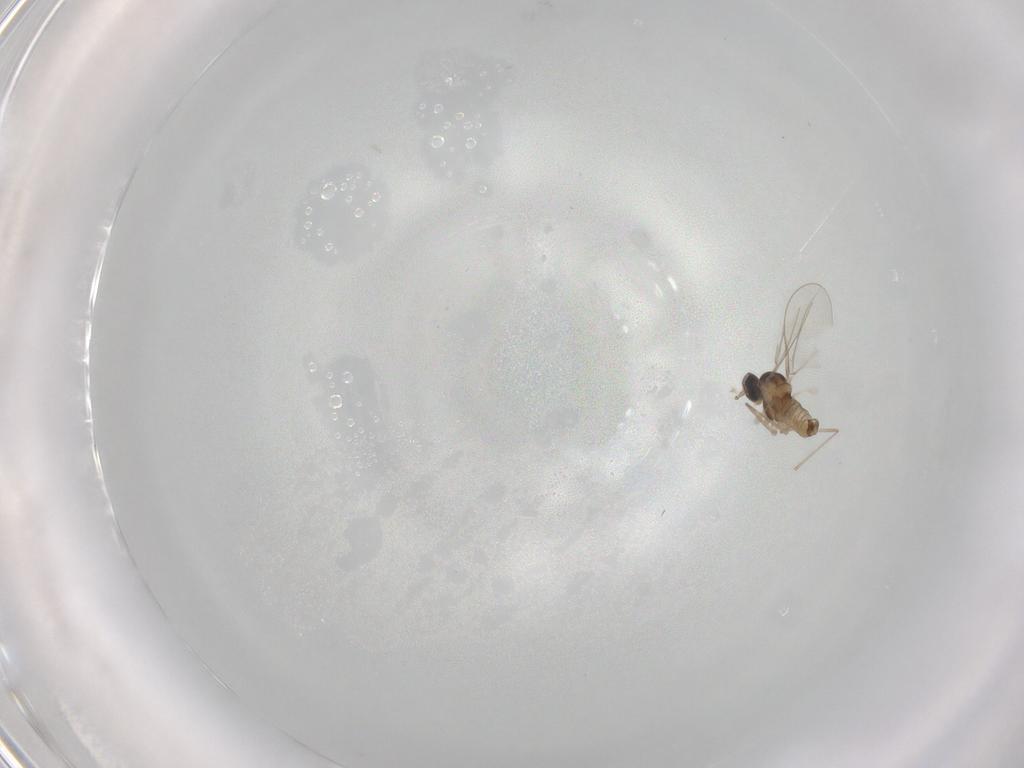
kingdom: Animalia
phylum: Arthropoda
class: Insecta
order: Diptera
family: Cecidomyiidae
